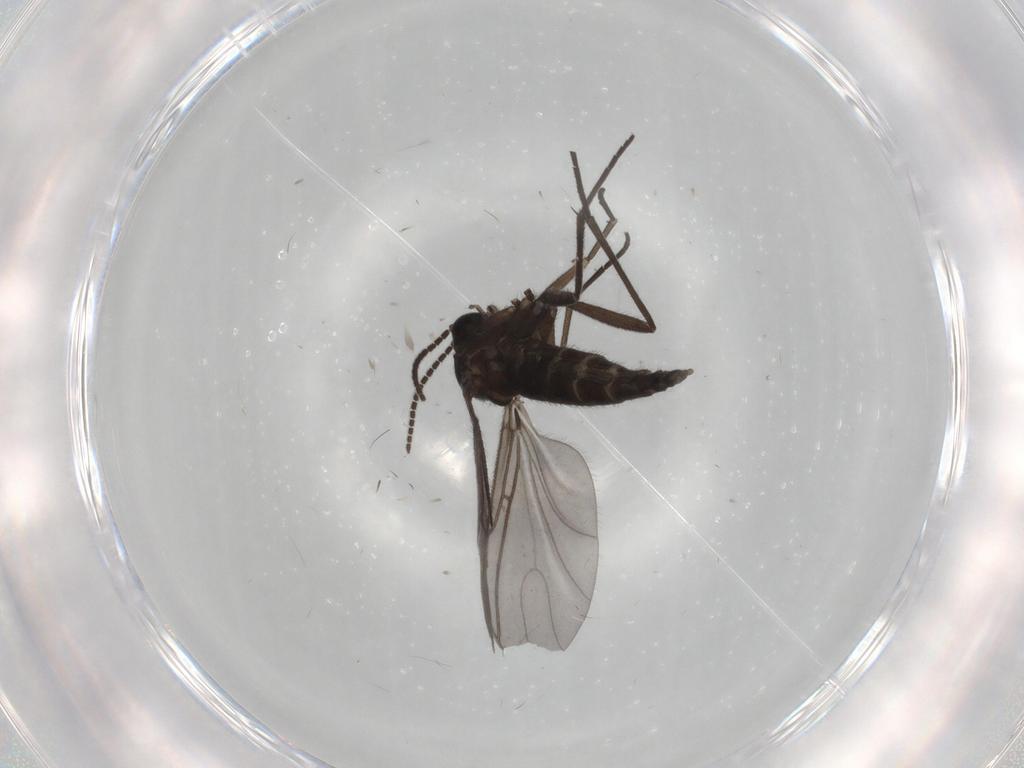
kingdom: Animalia
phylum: Arthropoda
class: Insecta
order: Diptera
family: Sciaridae
